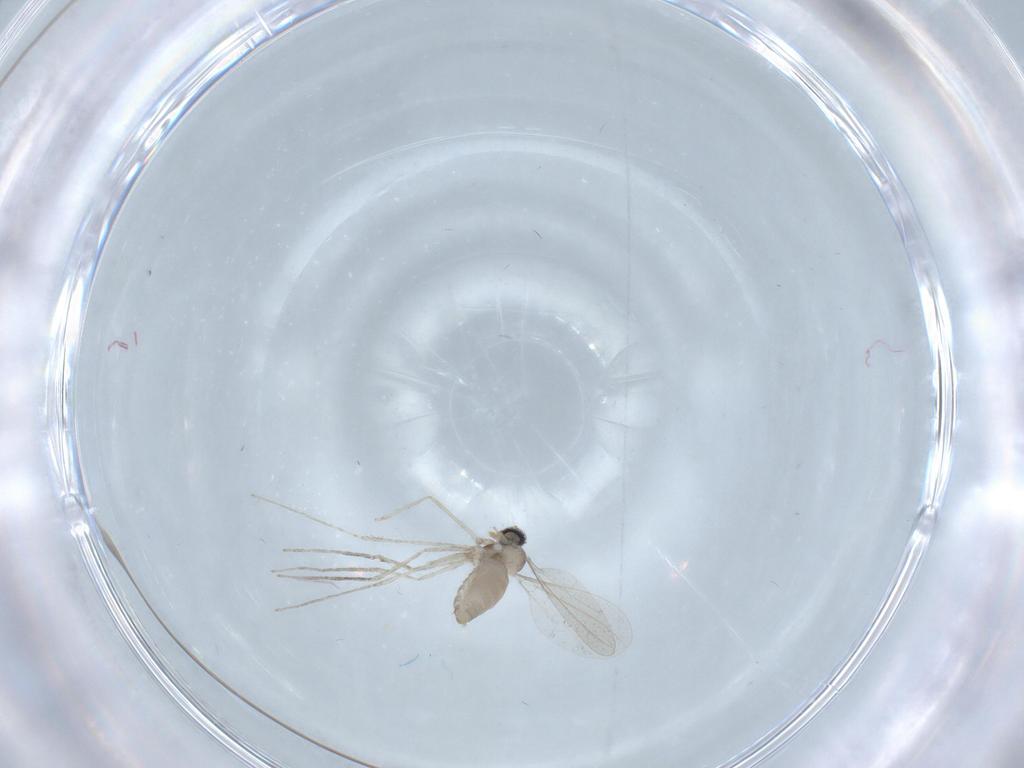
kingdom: Animalia
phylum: Arthropoda
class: Insecta
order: Diptera
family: Cecidomyiidae
